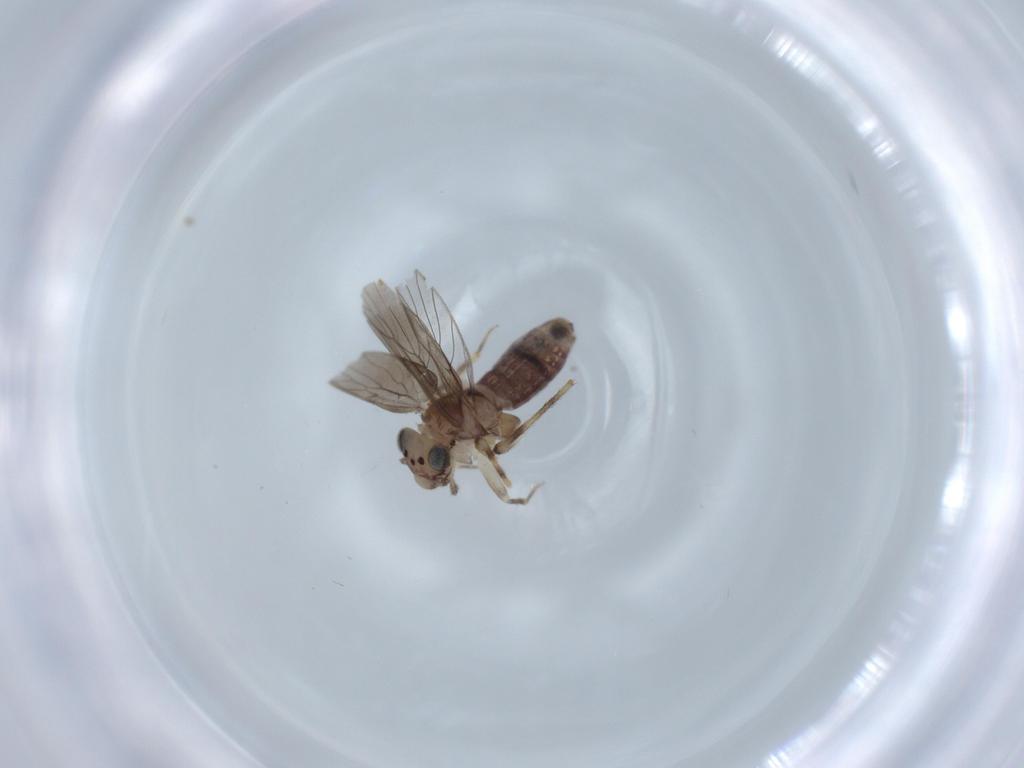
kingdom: Animalia
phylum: Arthropoda
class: Insecta
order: Psocodea
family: Lepidopsocidae
